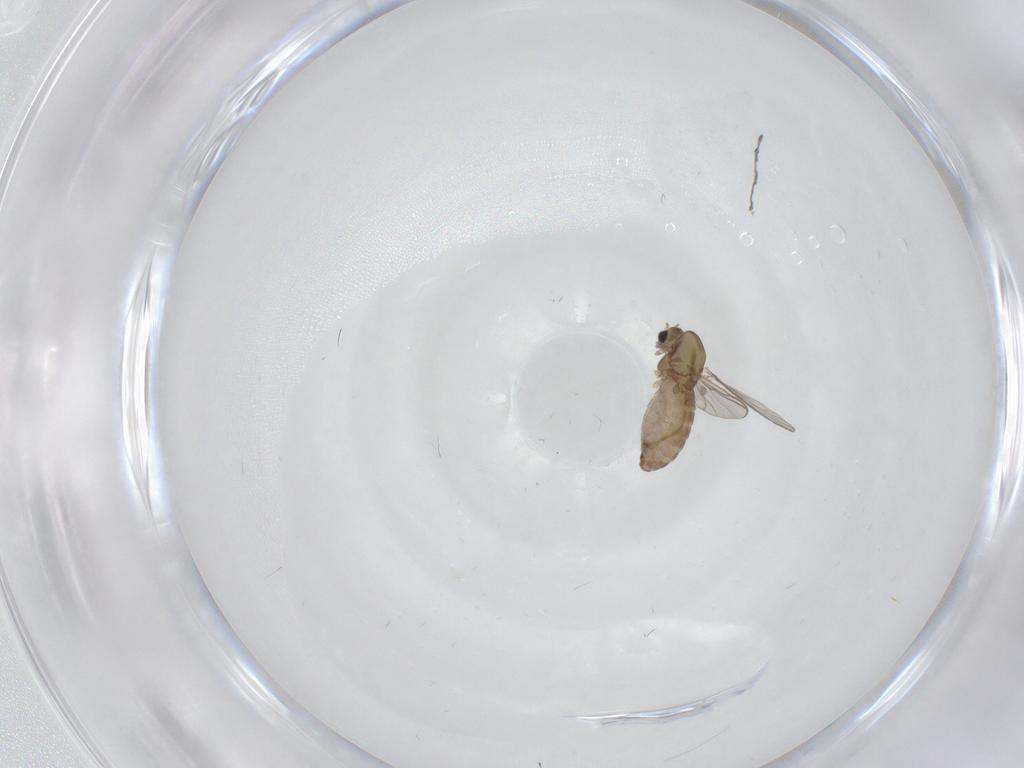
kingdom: Animalia
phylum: Arthropoda
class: Insecta
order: Diptera
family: Chironomidae
